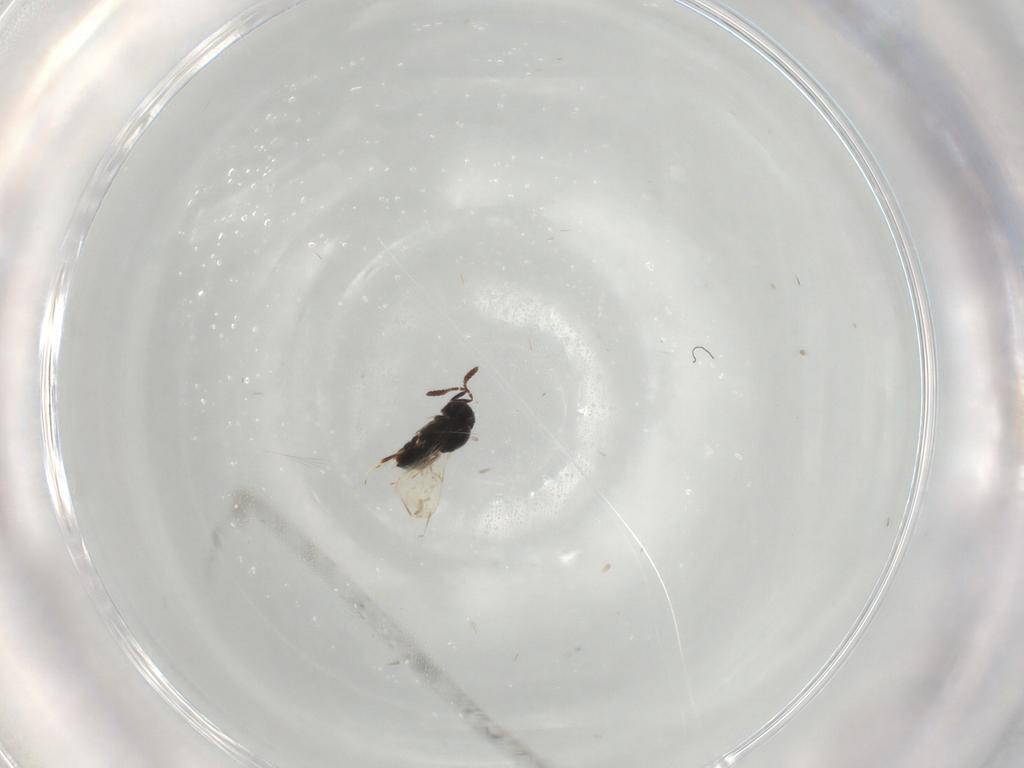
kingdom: Animalia
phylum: Arthropoda
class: Insecta
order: Hymenoptera
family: Scelionidae
